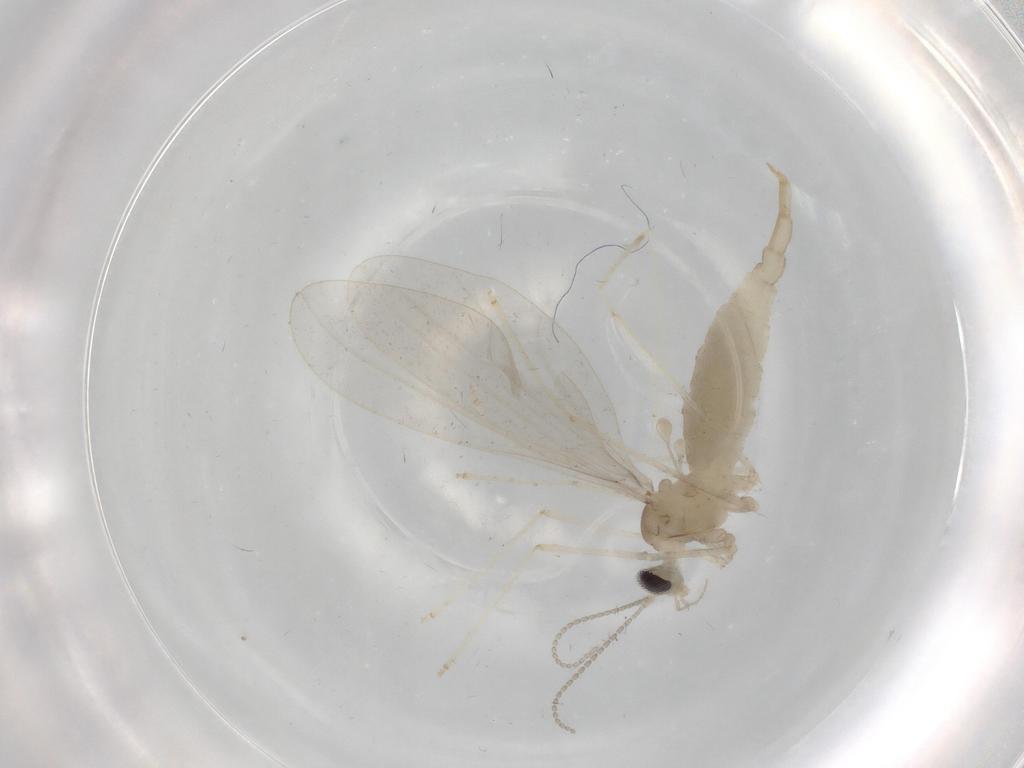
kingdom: Animalia
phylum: Arthropoda
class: Insecta
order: Diptera
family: Cecidomyiidae
